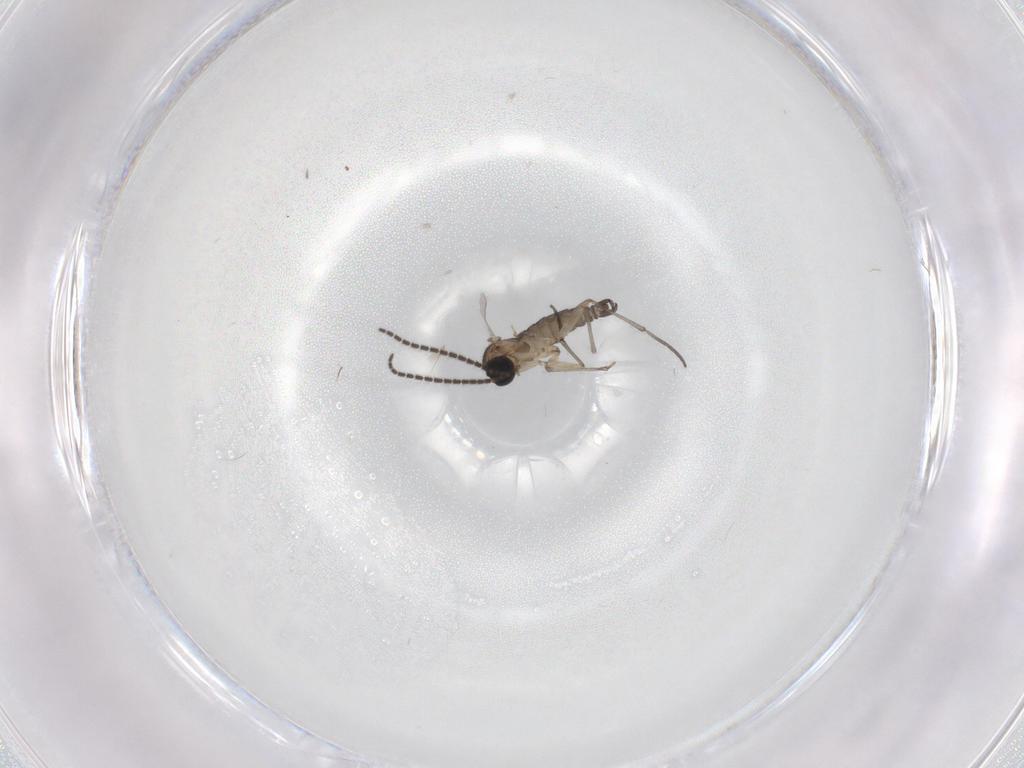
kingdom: Animalia
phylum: Arthropoda
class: Insecta
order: Diptera
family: Sciaridae
